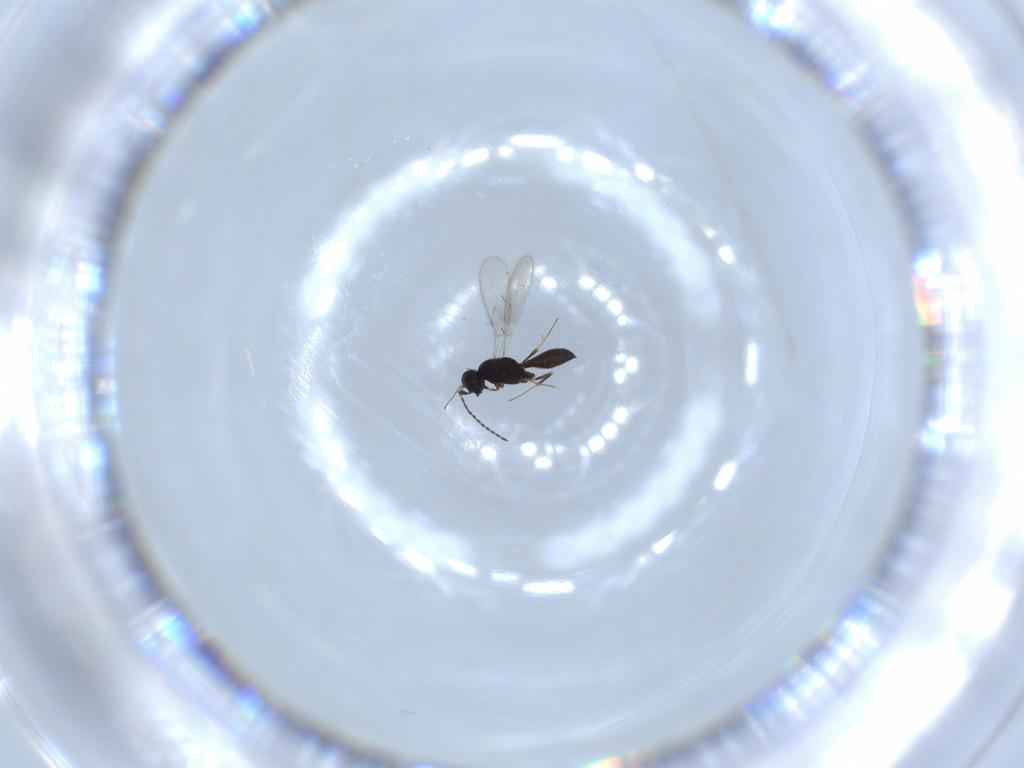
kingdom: Animalia
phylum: Arthropoda
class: Insecta
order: Hymenoptera
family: Scelionidae
